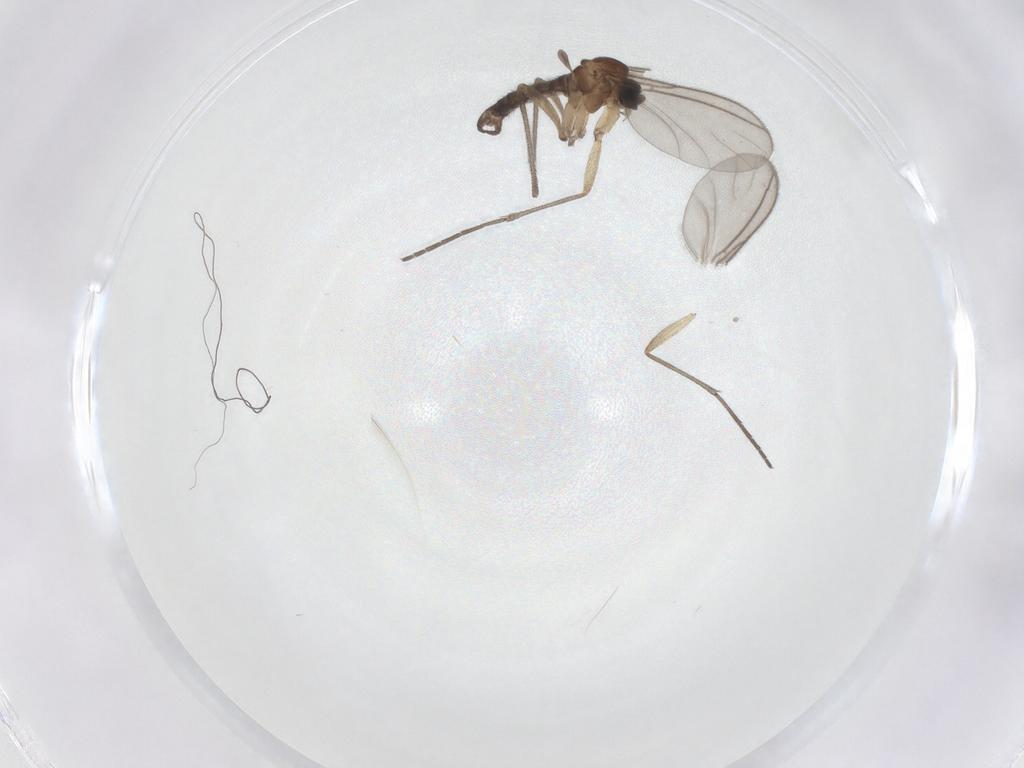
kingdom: Animalia
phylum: Arthropoda
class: Insecta
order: Diptera
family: Sciaridae
